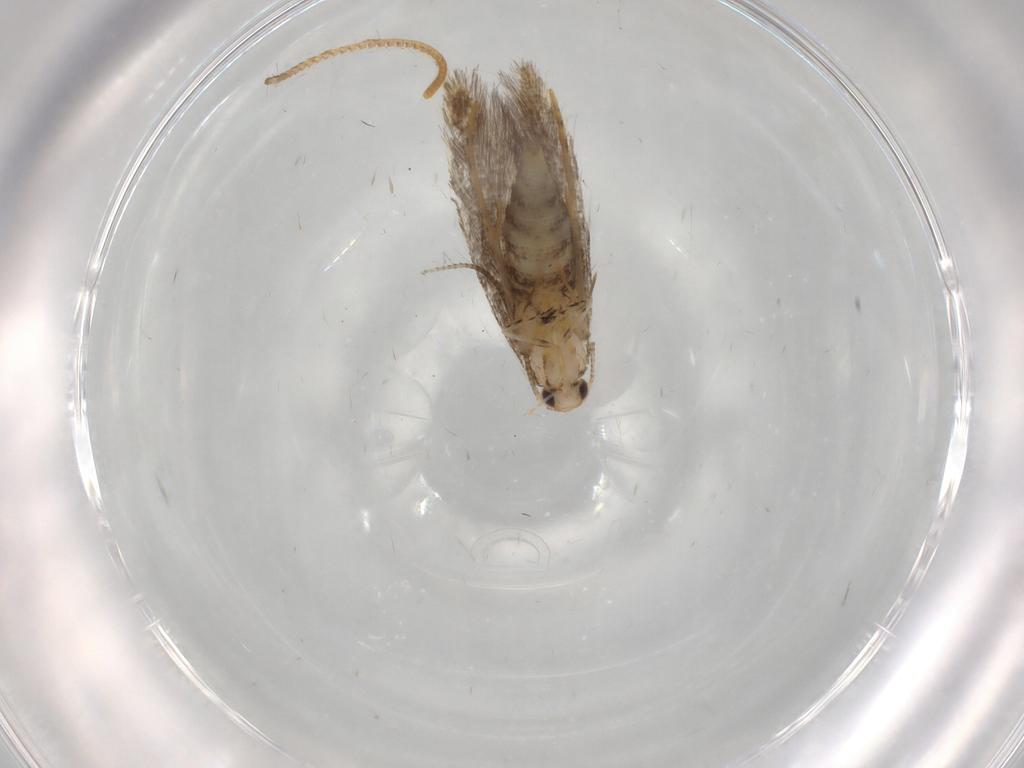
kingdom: Animalia
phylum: Arthropoda
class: Insecta
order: Lepidoptera
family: Tineidae
